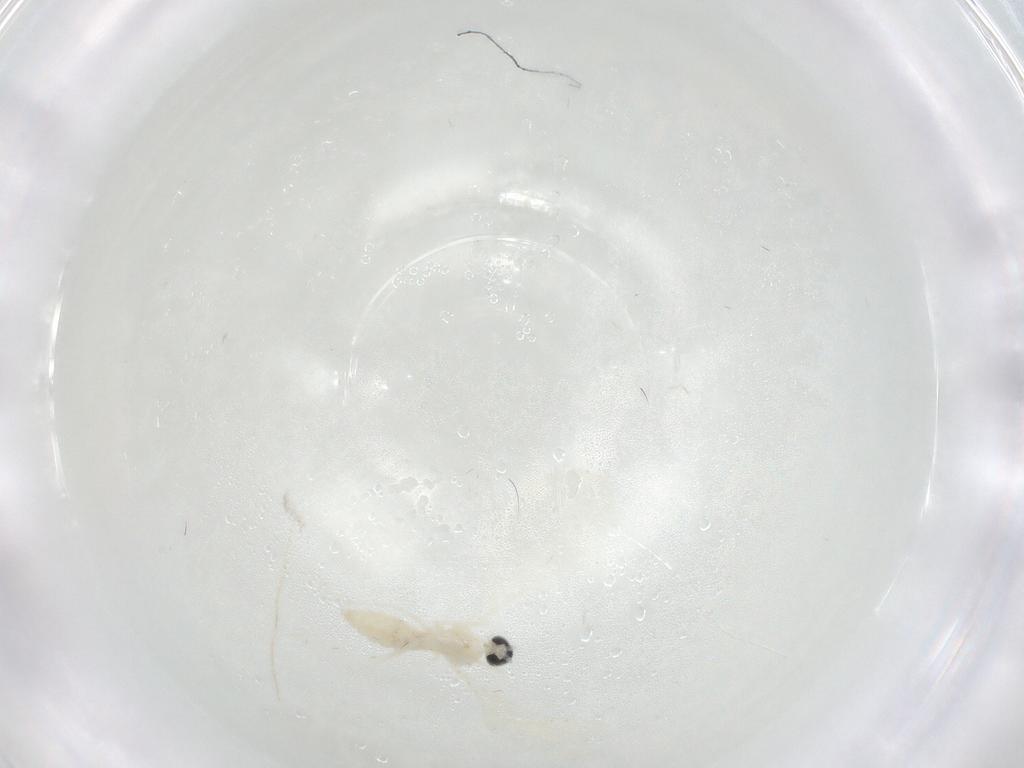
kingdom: Animalia
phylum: Arthropoda
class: Insecta
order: Diptera
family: Cecidomyiidae
